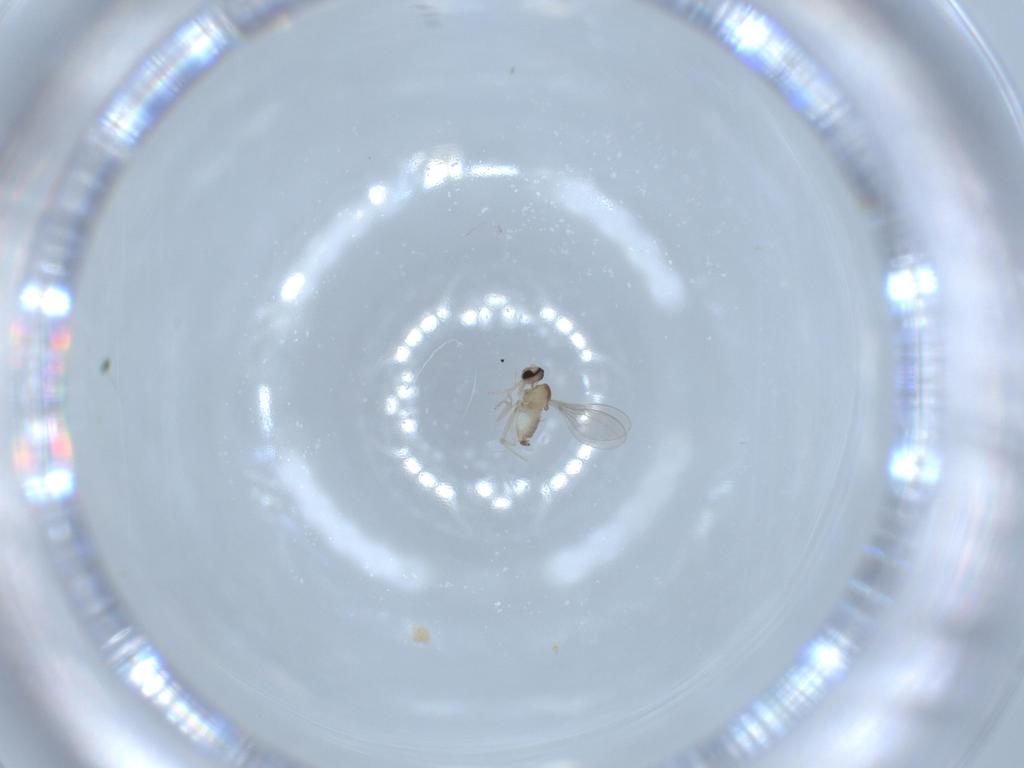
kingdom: Animalia
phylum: Arthropoda
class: Insecta
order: Diptera
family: Cecidomyiidae
